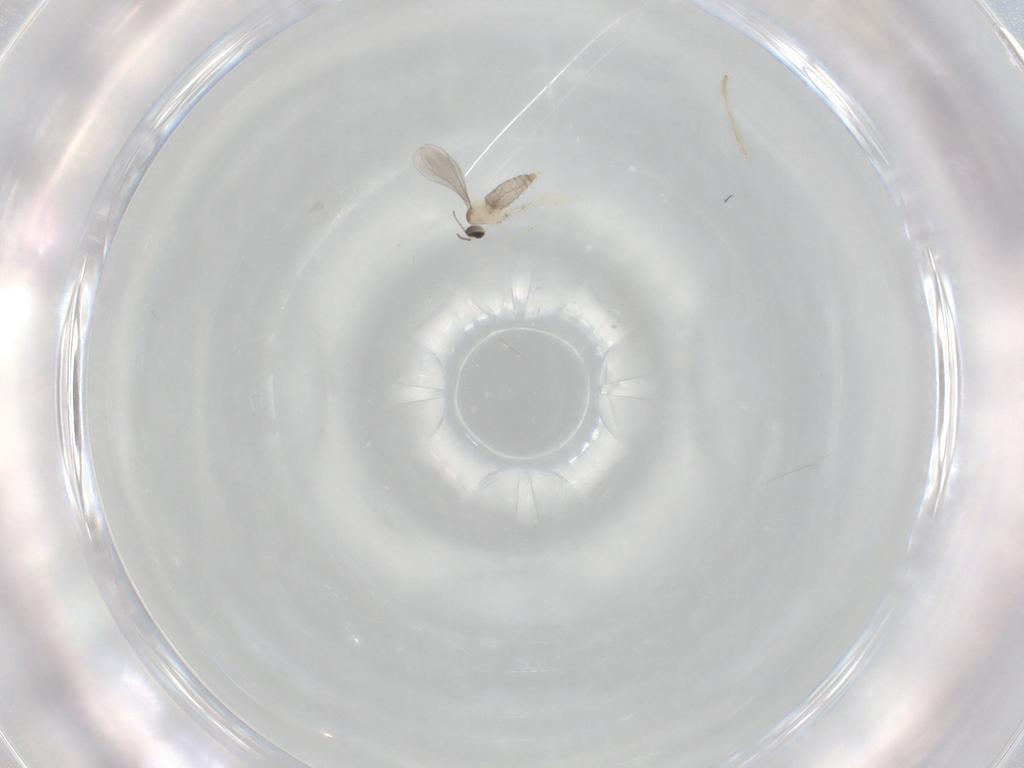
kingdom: Animalia
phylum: Arthropoda
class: Insecta
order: Diptera
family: Chironomidae
